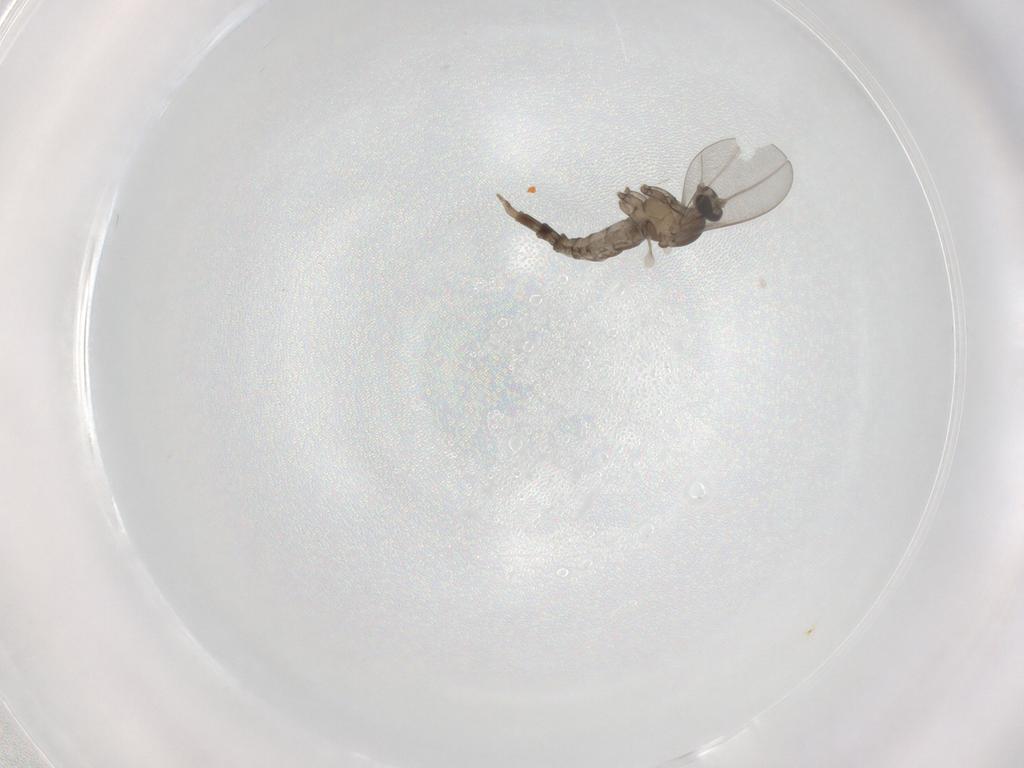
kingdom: Animalia
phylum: Arthropoda
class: Insecta
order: Diptera
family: Cecidomyiidae
